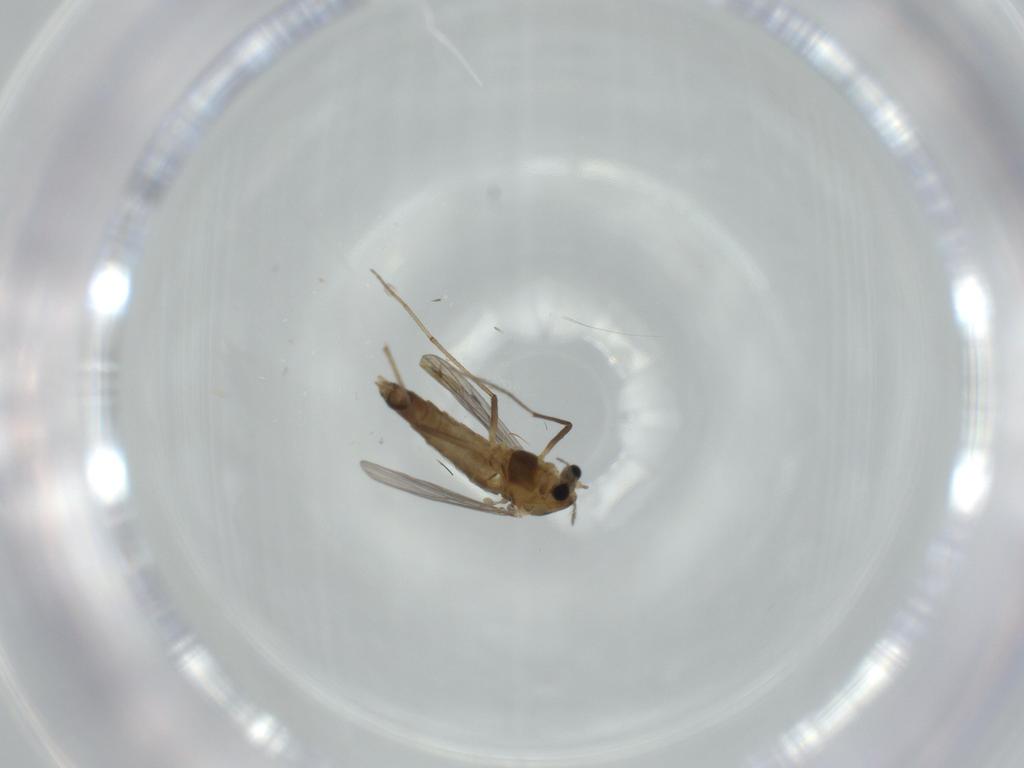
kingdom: Animalia
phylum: Arthropoda
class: Insecta
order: Diptera
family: Chironomidae
